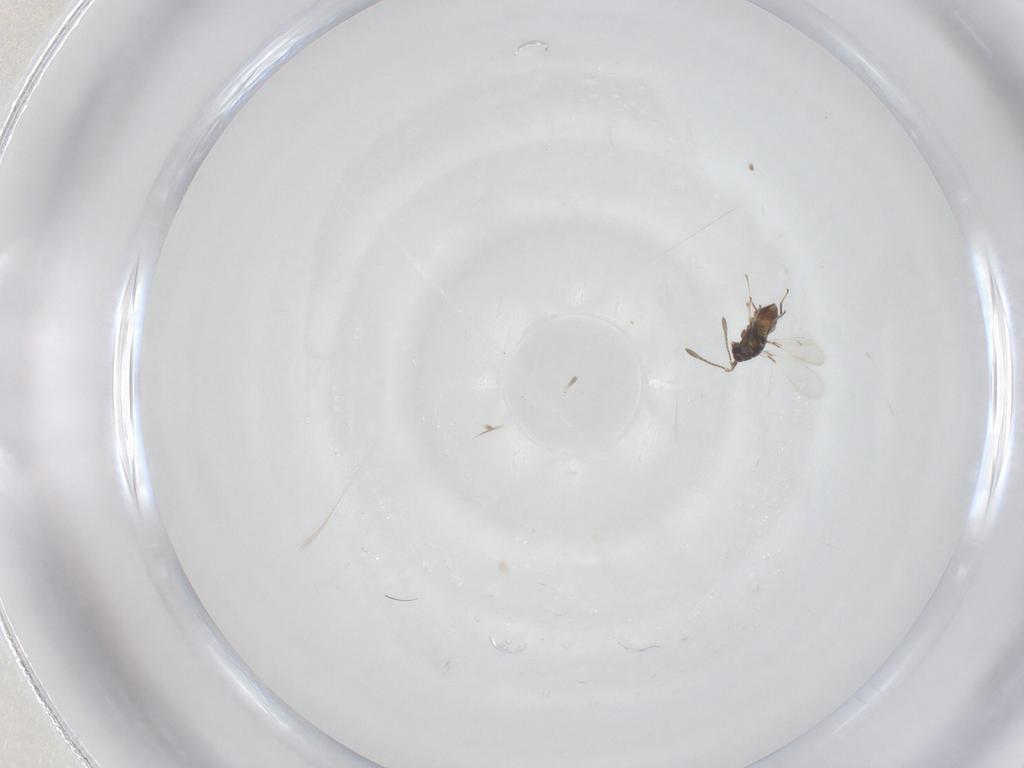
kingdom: Animalia
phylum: Arthropoda
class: Insecta
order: Hymenoptera
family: Mymaridae
